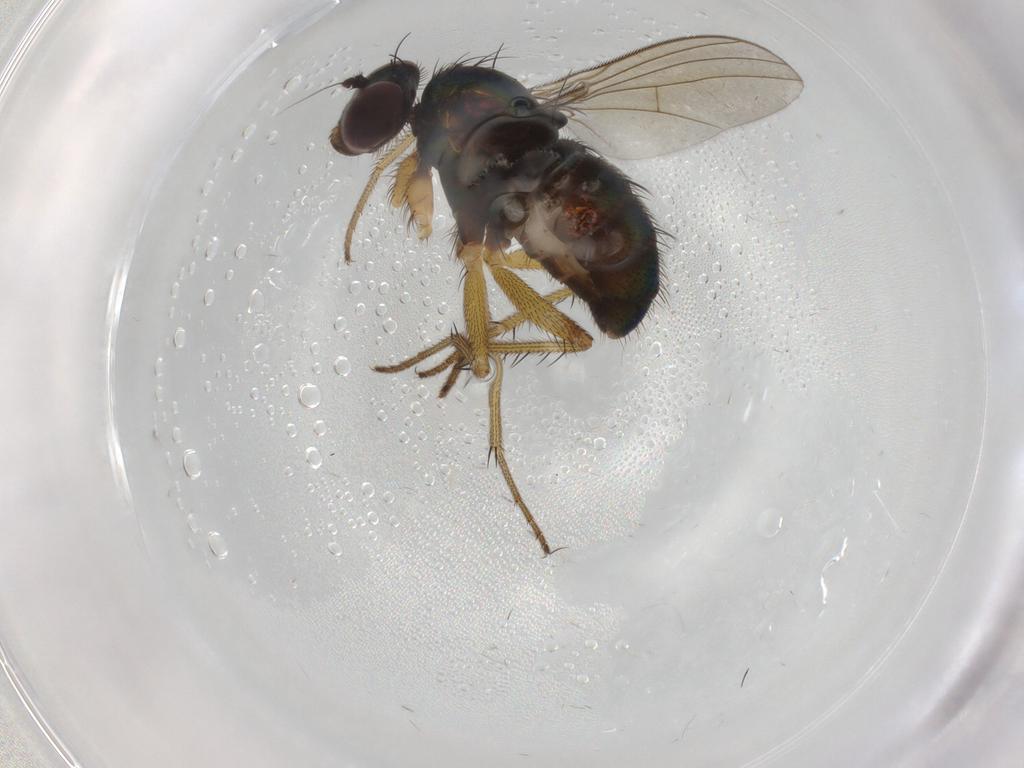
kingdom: Animalia
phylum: Arthropoda
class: Insecta
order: Diptera
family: Dolichopodidae
